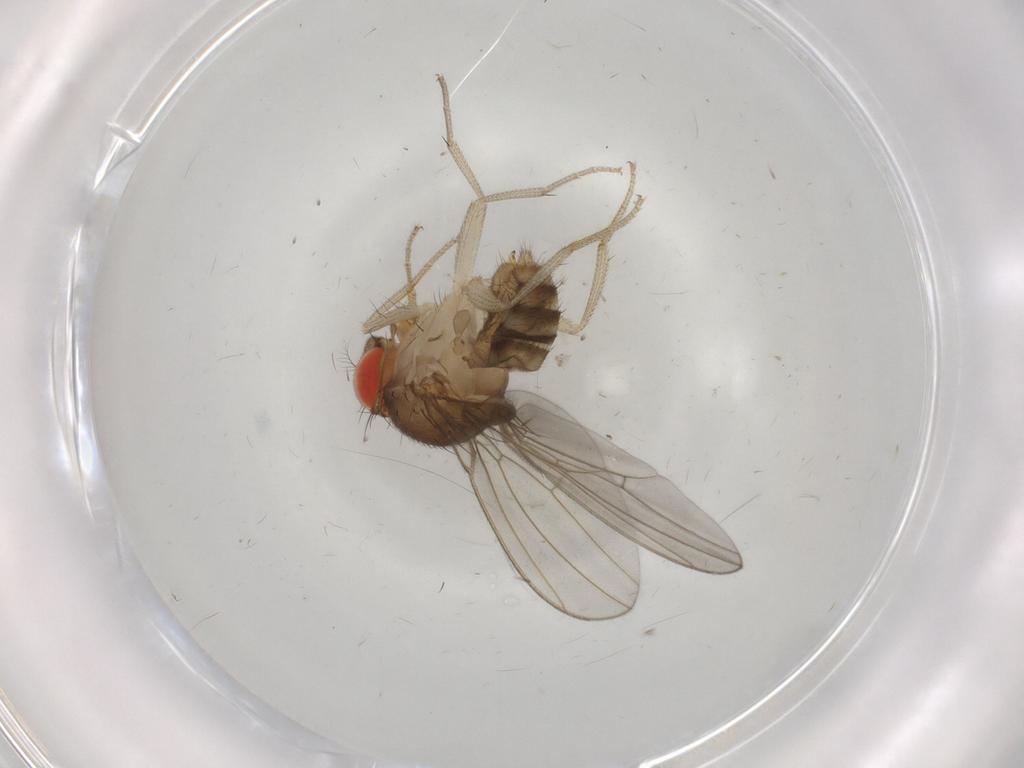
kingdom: Animalia
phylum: Arthropoda
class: Insecta
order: Diptera
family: Drosophilidae
